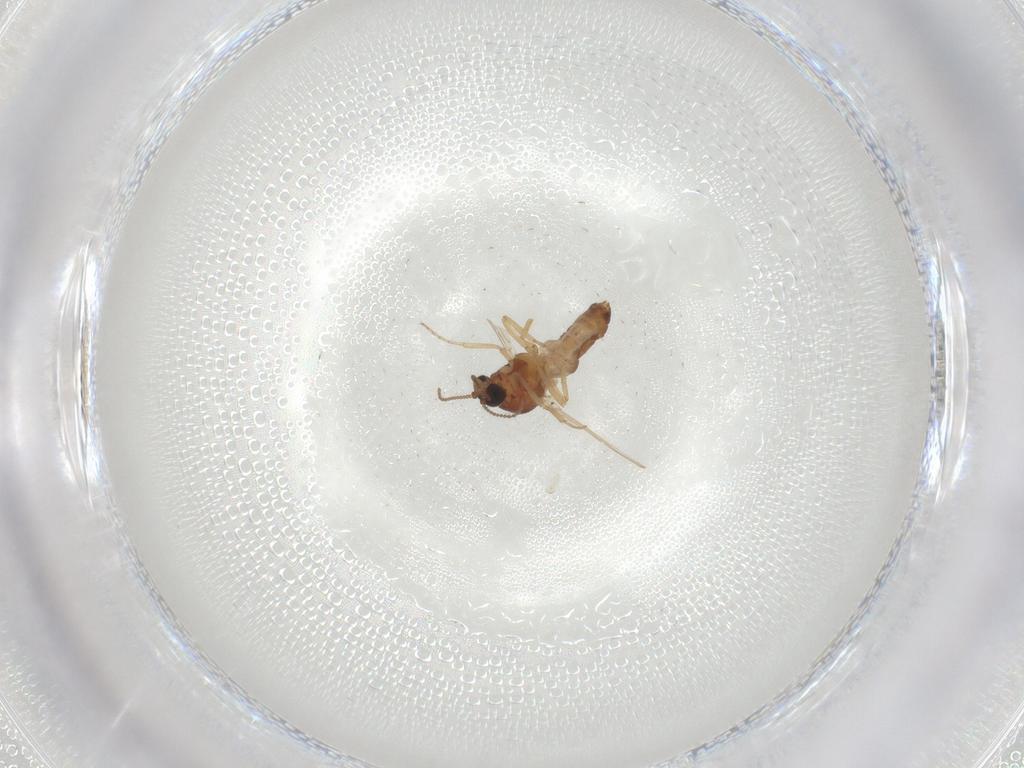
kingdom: Animalia
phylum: Arthropoda
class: Insecta
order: Diptera
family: Ceratopogonidae
